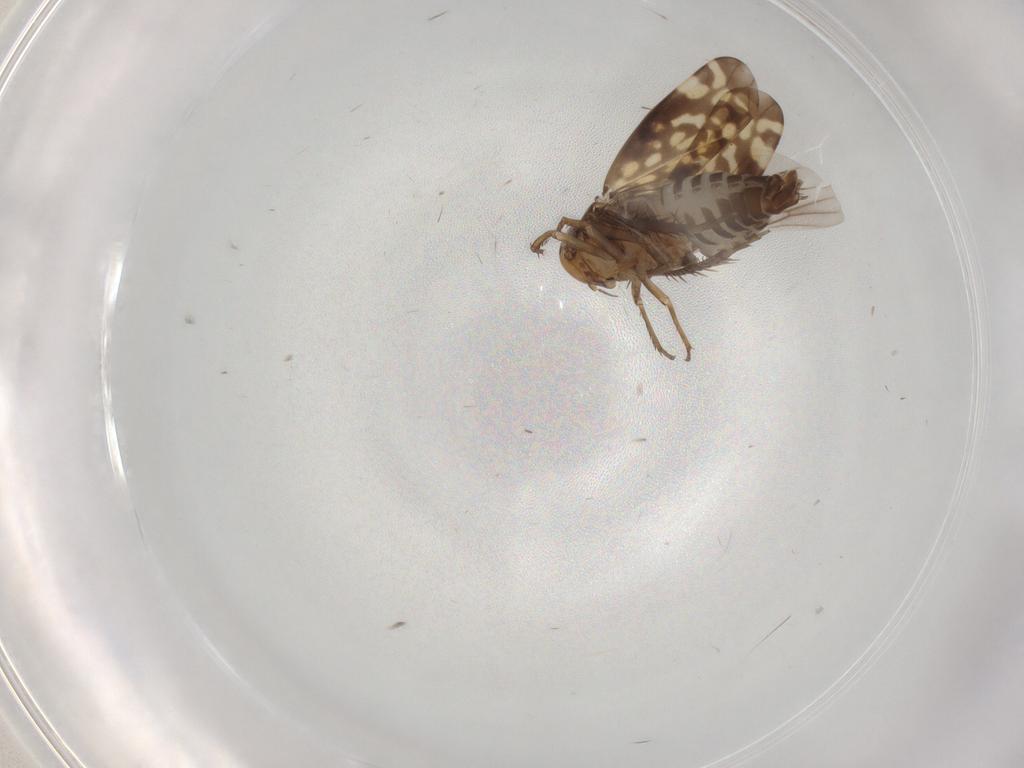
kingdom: Animalia
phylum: Arthropoda
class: Insecta
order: Hemiptera
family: Cicadellidae
